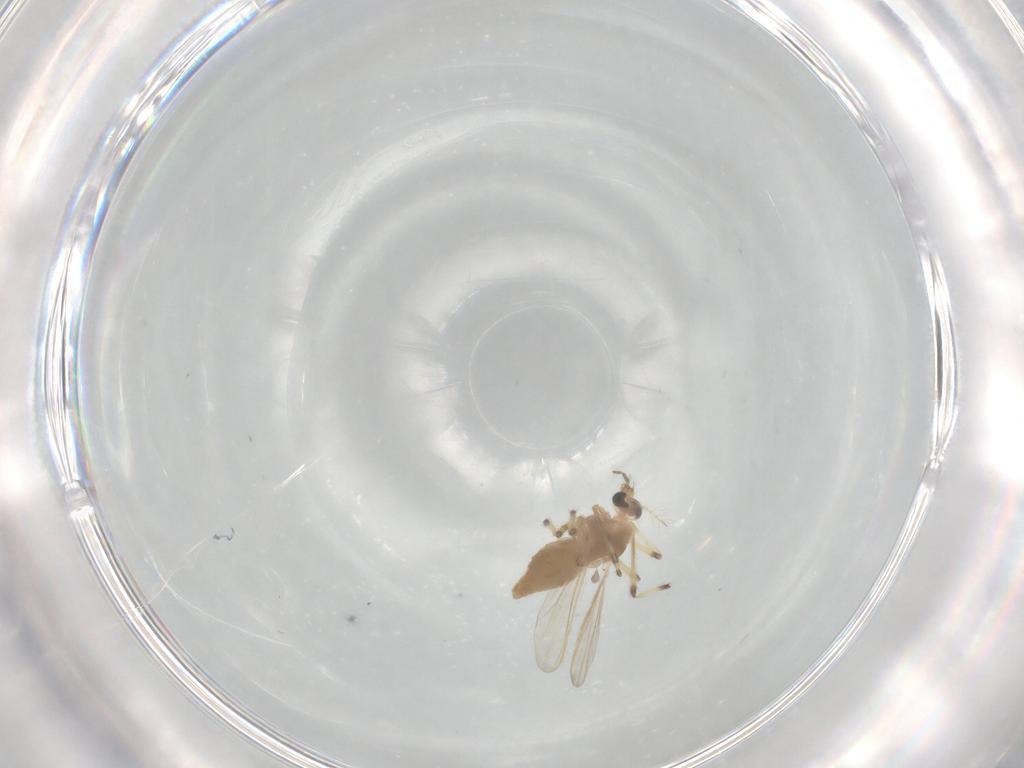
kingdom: Animalia
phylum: Arthropoda
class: Insecta
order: Diptera
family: Chironomidae
